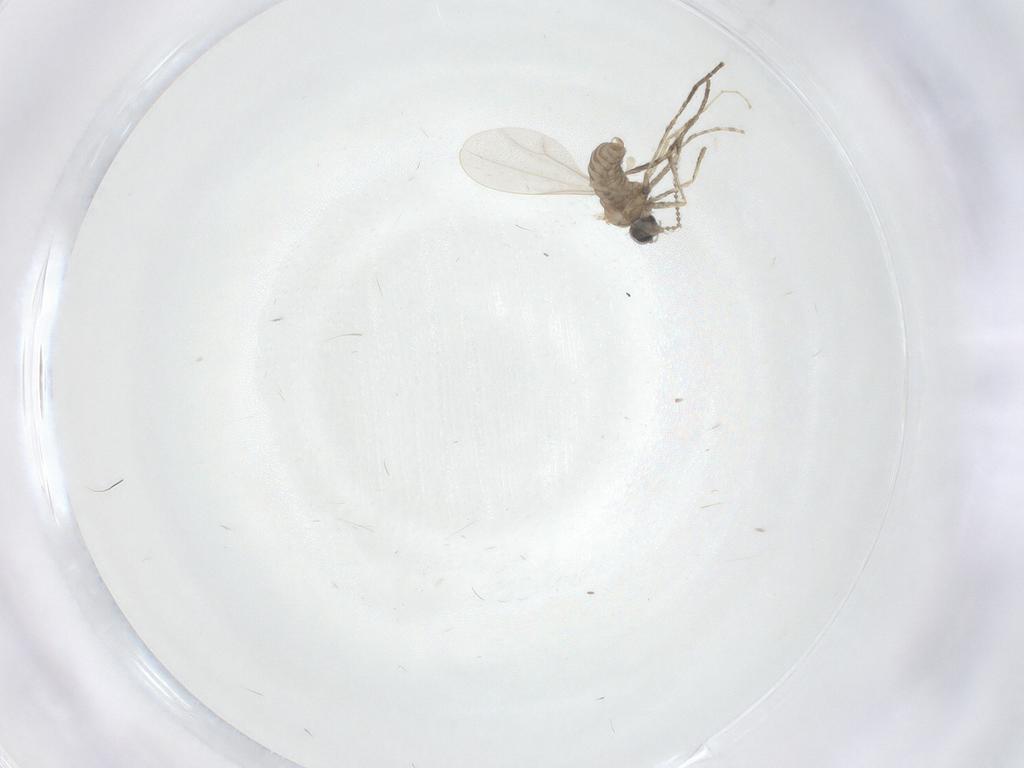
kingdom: Animalia
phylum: Arthropoda
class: Insecta
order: Diptera
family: Cecidomyiidae
